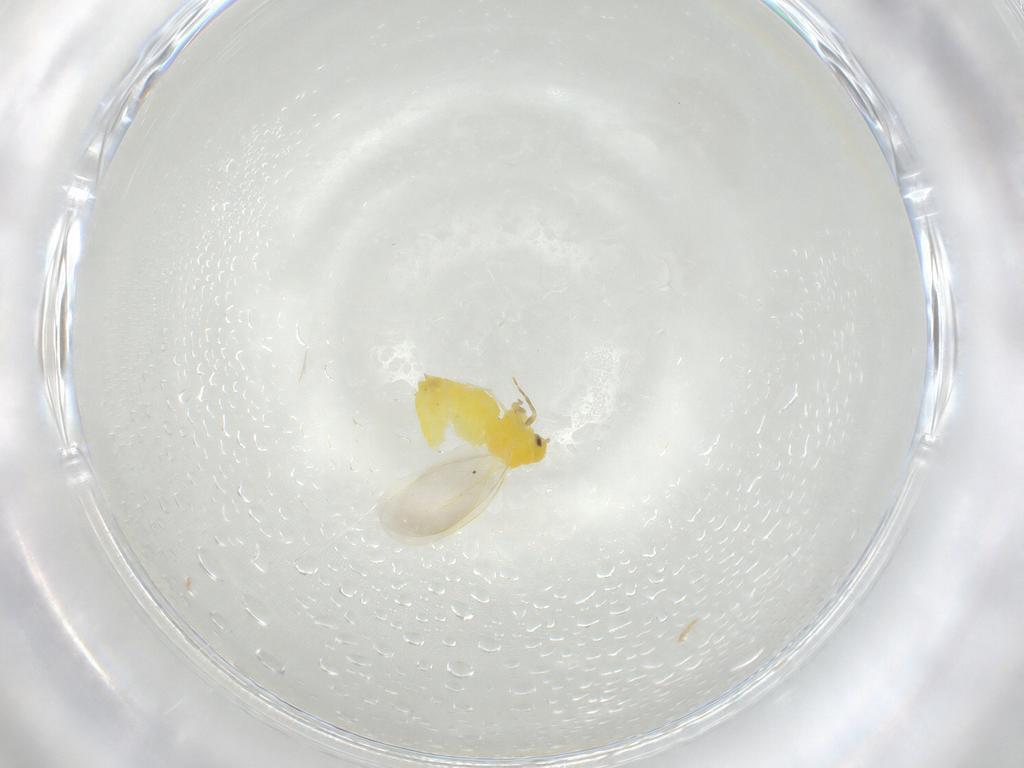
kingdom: Animalia
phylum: Arthropoda
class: Insecta
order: Hemiptera
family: Aleyrodidae
